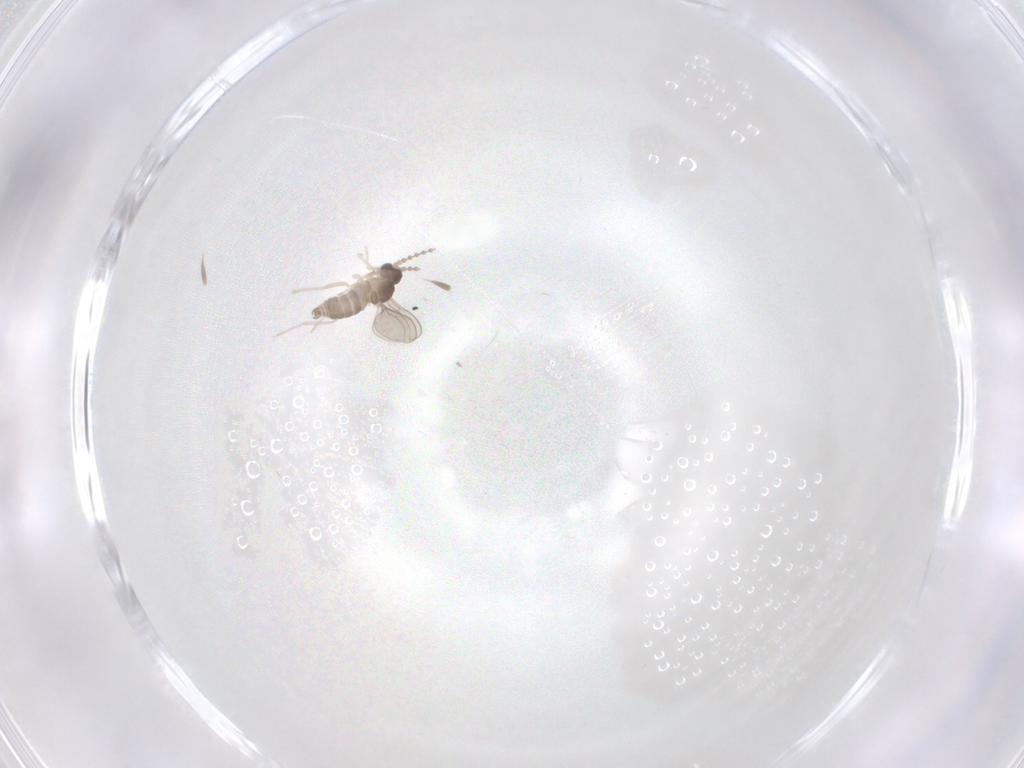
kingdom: Animalia
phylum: Arthropoda
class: Insecta
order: Diptera
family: Cecidomyiidae
